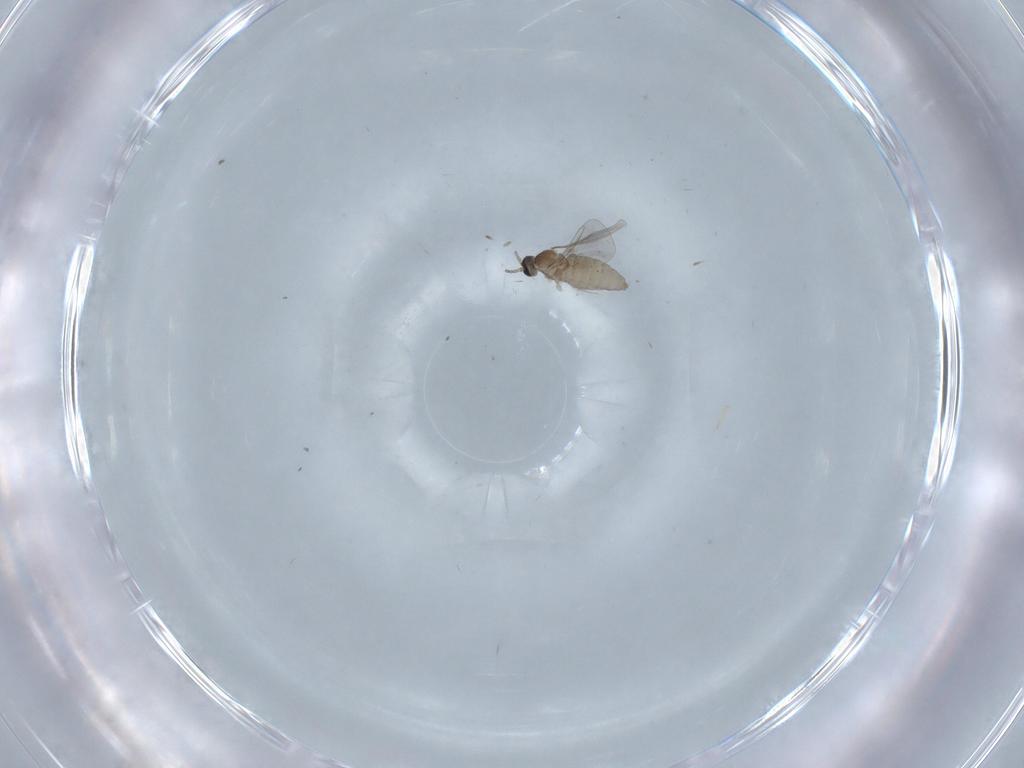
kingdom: Animalia
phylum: Arthropoda
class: Insecta
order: Diptera
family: Cecidomyiidae
